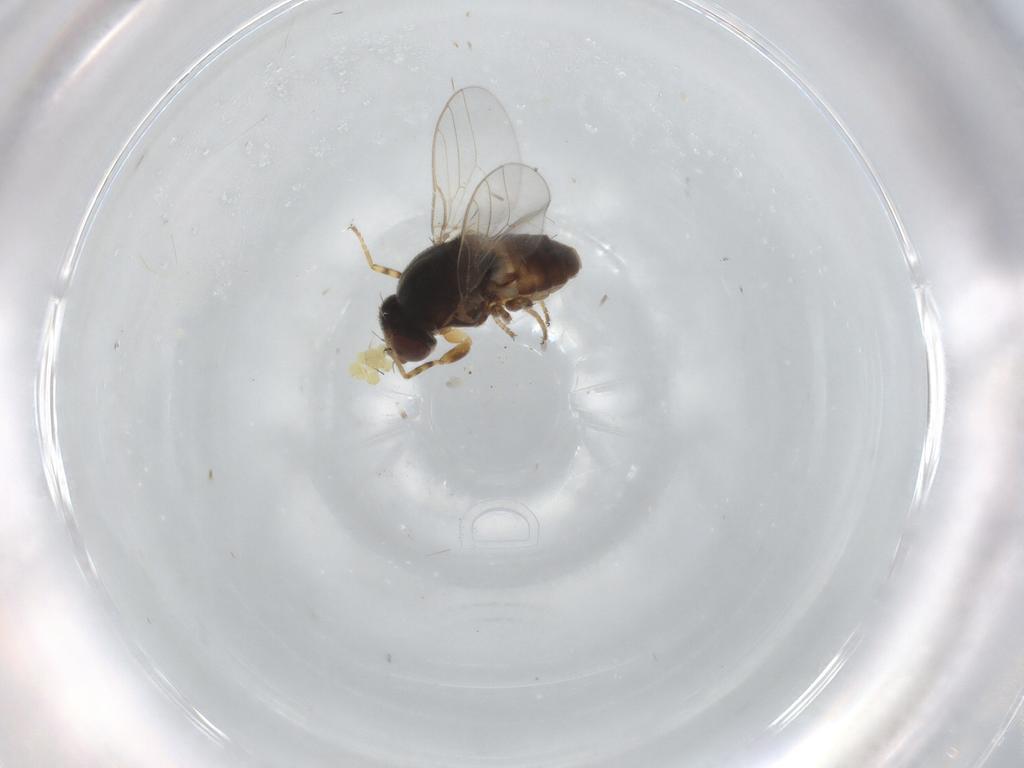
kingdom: Animalia
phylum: Arthropoda
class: Insecta
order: Diptera
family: Chloropidae
